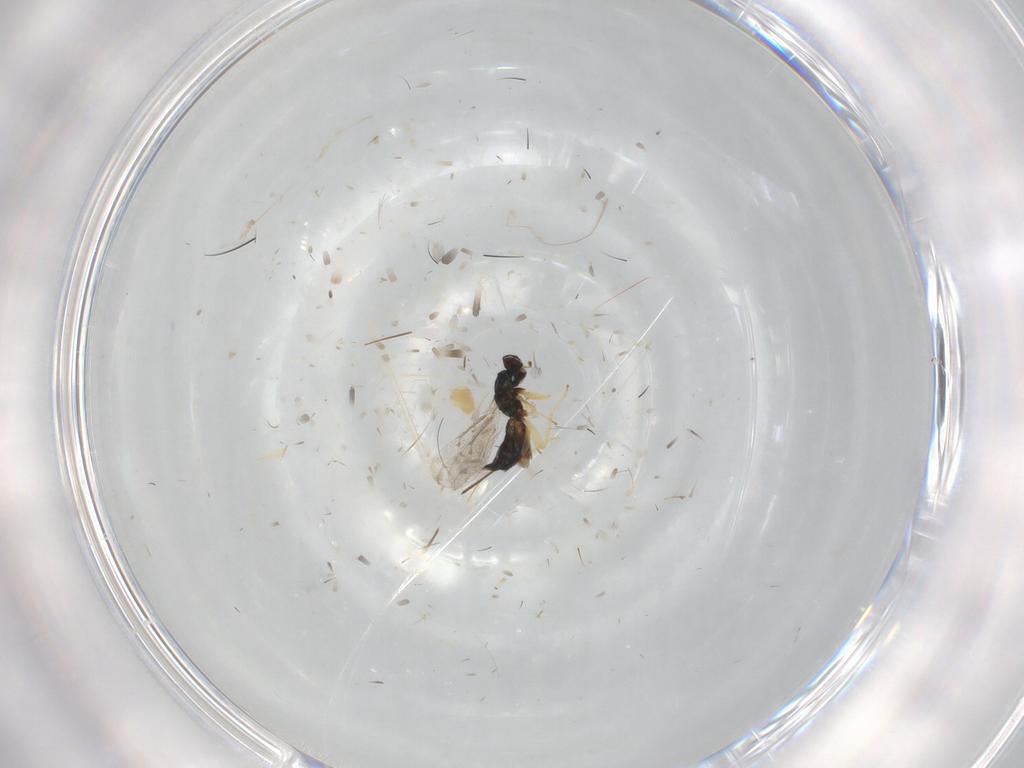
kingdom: Animalia
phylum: Arthropoda
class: Insecta
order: Hymenoptera
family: Eulophidae
